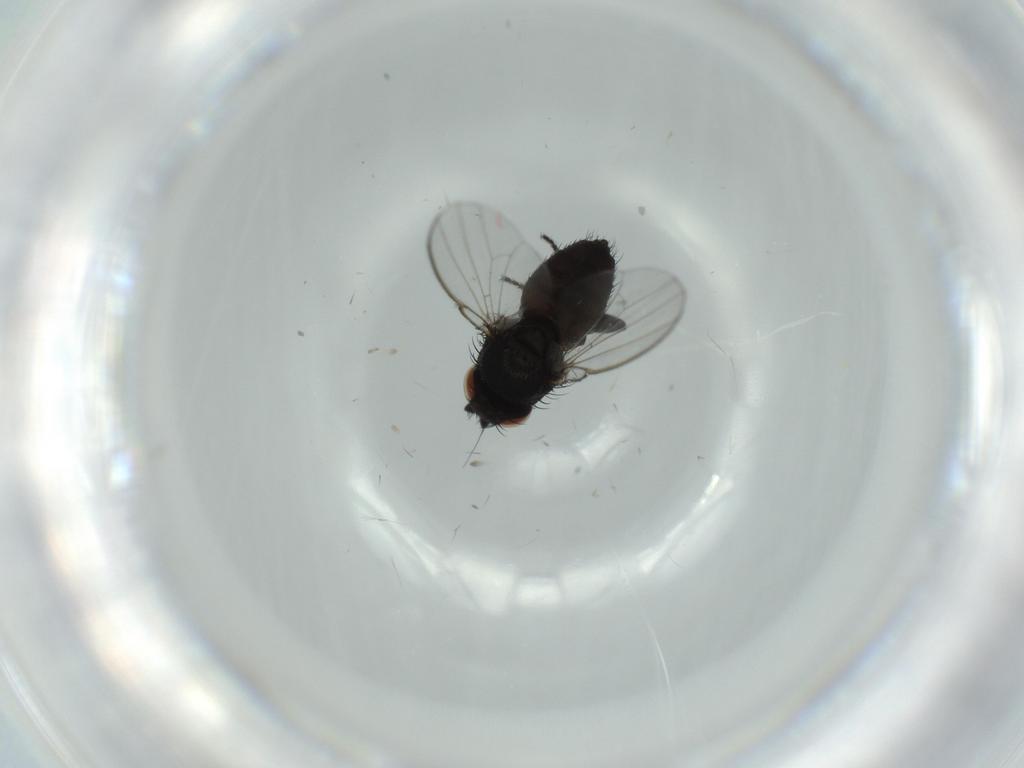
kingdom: Animalia
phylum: Arthropoda
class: Insecta
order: Diptera
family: Milichiidae
